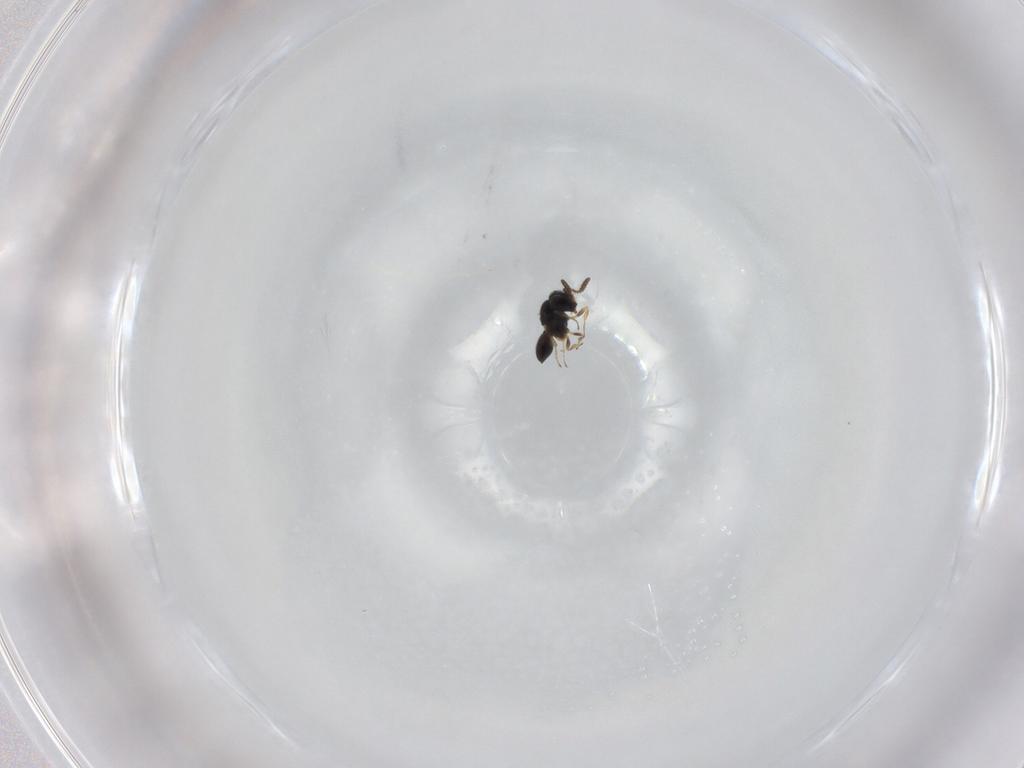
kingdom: Animalia
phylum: Arthropoda
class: Insecta
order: Hymenoptera
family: Scelionidae
